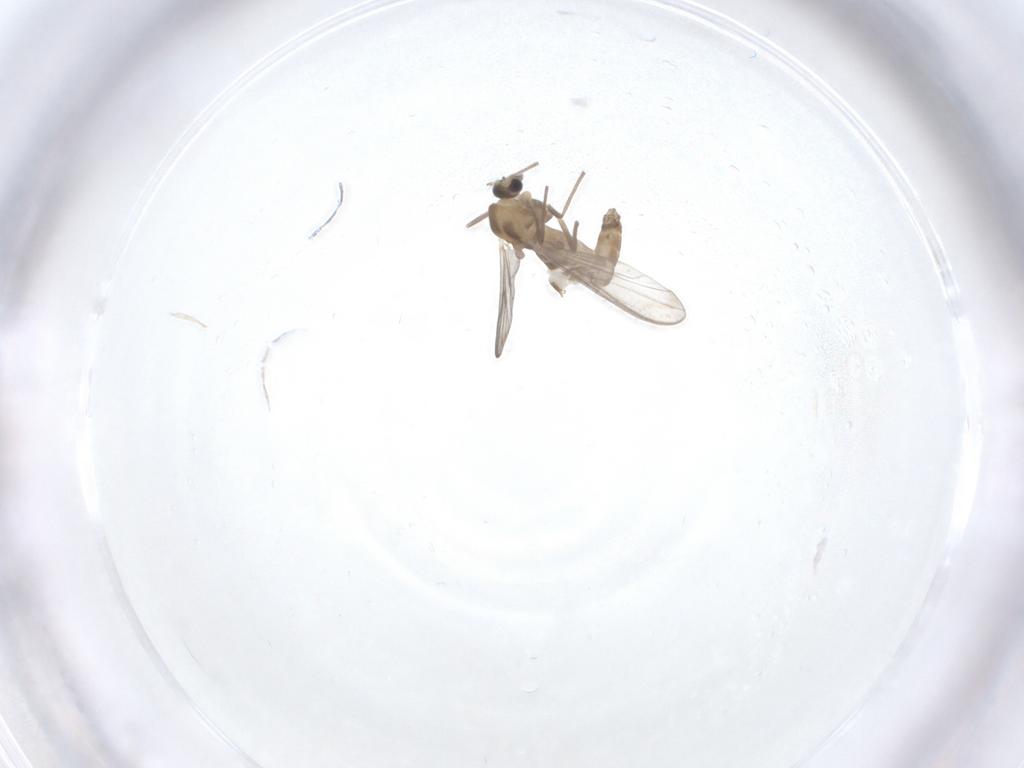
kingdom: Animalia
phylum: Arthropoda
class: Insecta
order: Diptera
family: Chironomidae
